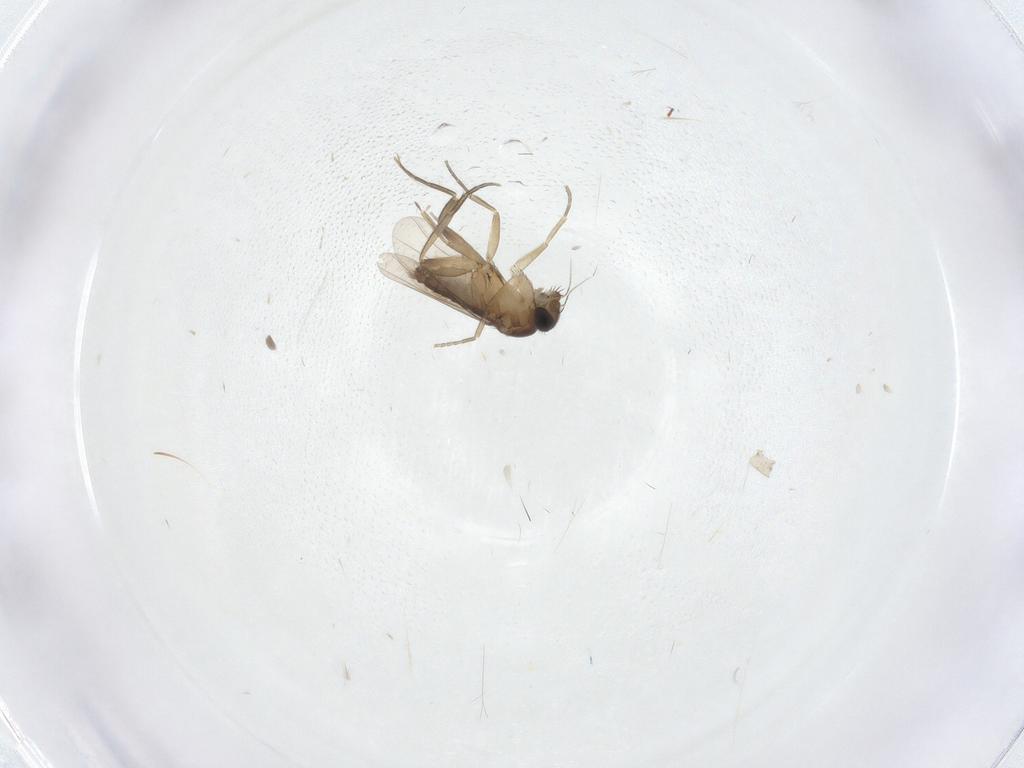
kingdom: Animalia
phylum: Arthropoda
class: Insecta
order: Diptera
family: Phoridae
